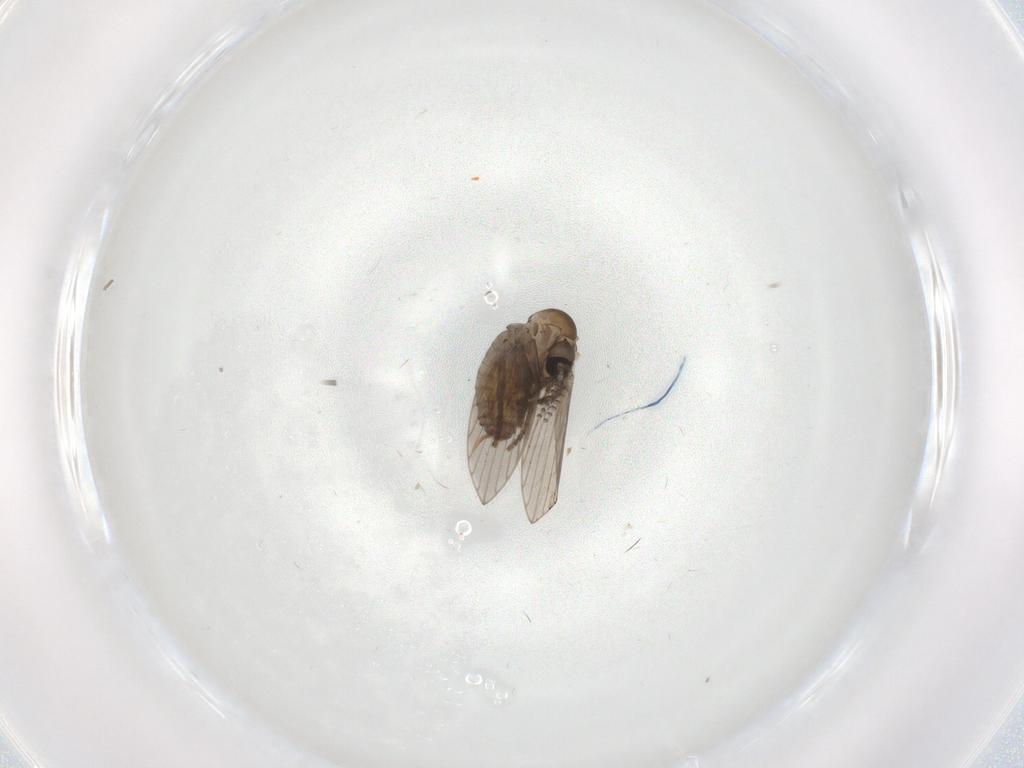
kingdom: Animalia
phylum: Arthropoda
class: Insecta
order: Diptera
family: Psychodidae
